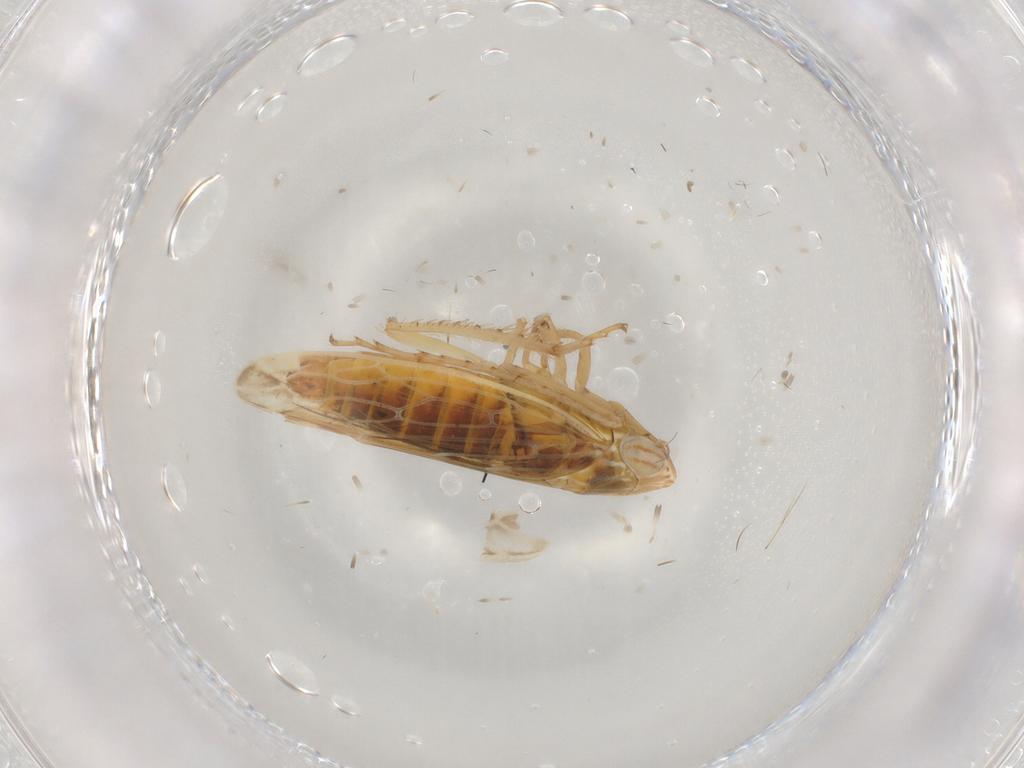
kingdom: Animalia
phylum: Arthropoda
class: Insecta
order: Hemiptera
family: Cicadellidae
